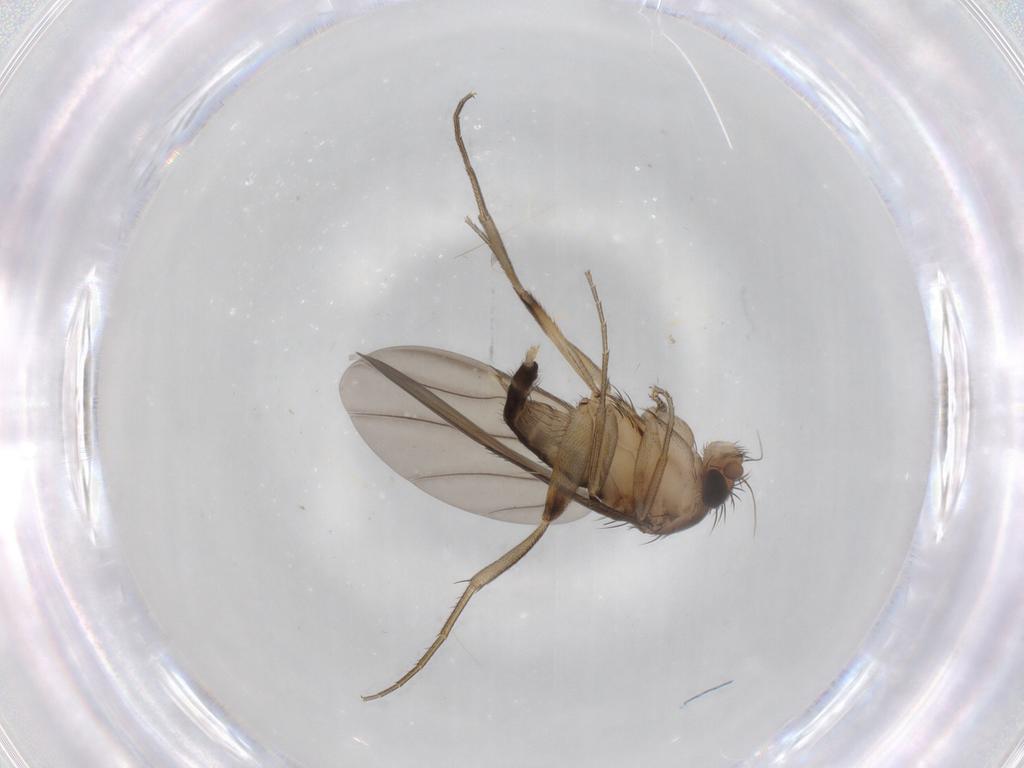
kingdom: Animalia
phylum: Arthropoda
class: Insecta
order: Diptera
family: Phoridae
